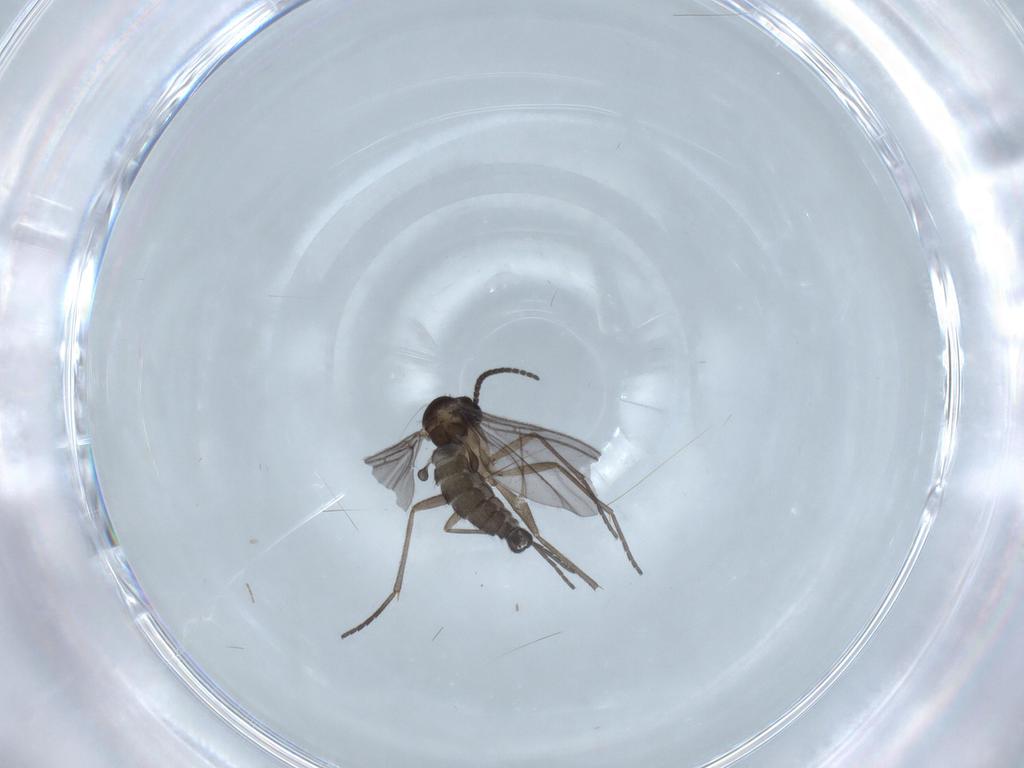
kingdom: Animalia
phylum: Arthropoda
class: Insecta
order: Diptera
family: Sciaridae
